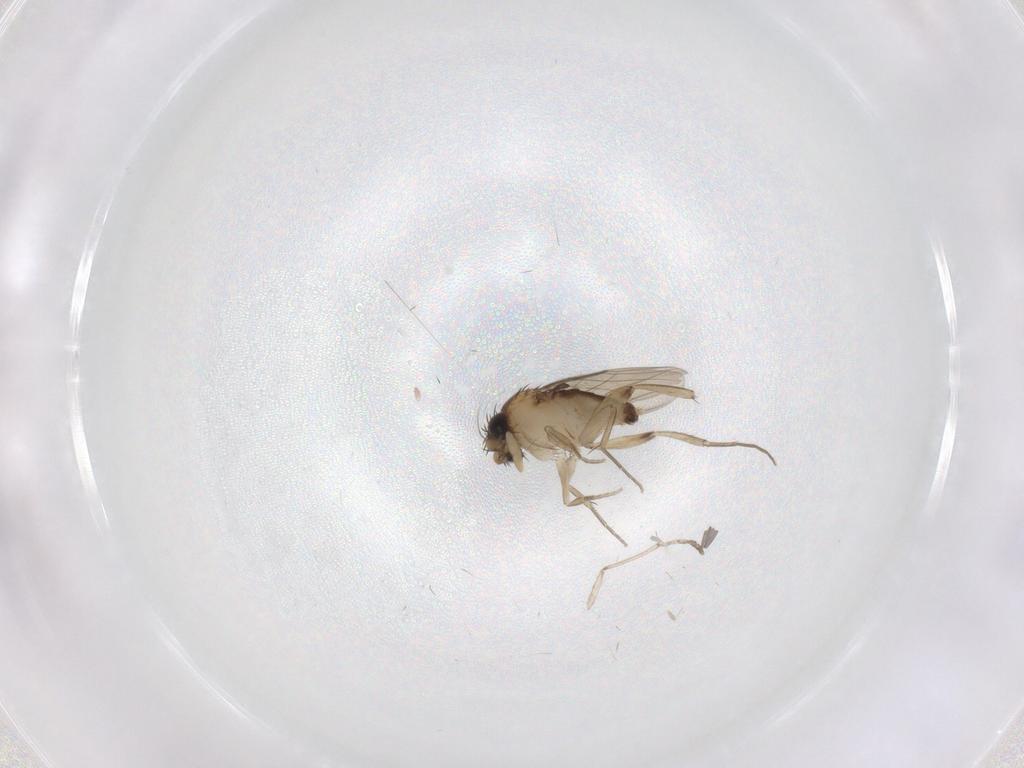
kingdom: Animalia
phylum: Arthropoda
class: Insecta
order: Diptera
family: Phoridae
